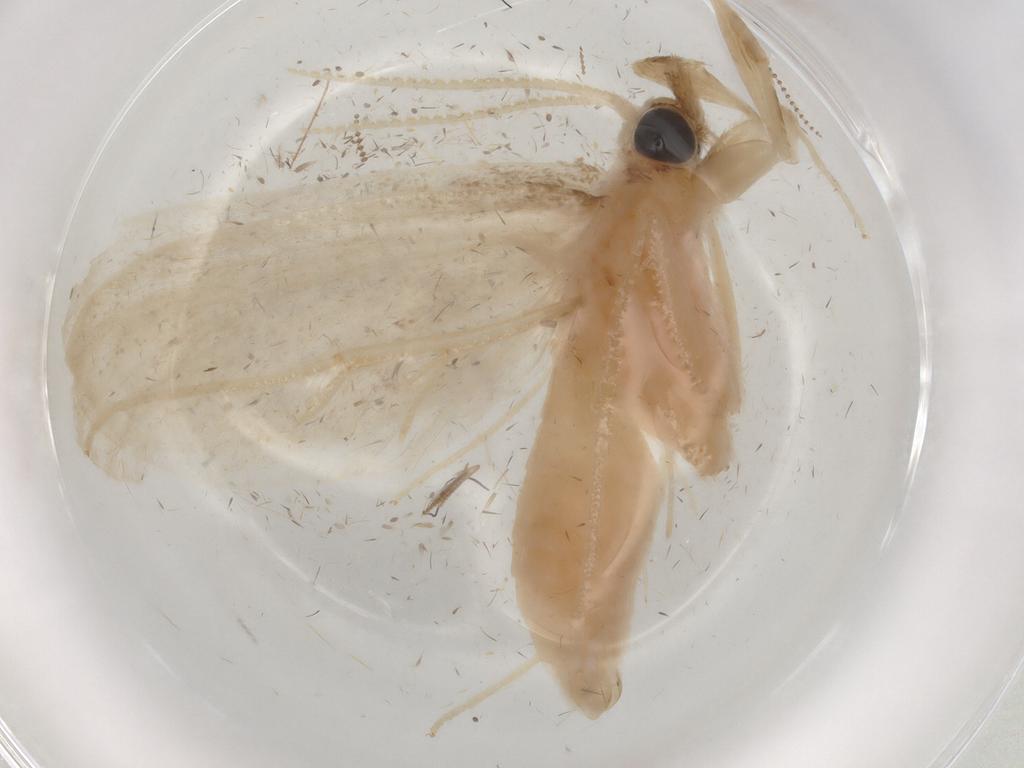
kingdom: Animalia
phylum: Arthropoda
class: Insecta
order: Lepidoptera
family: Crambidae
